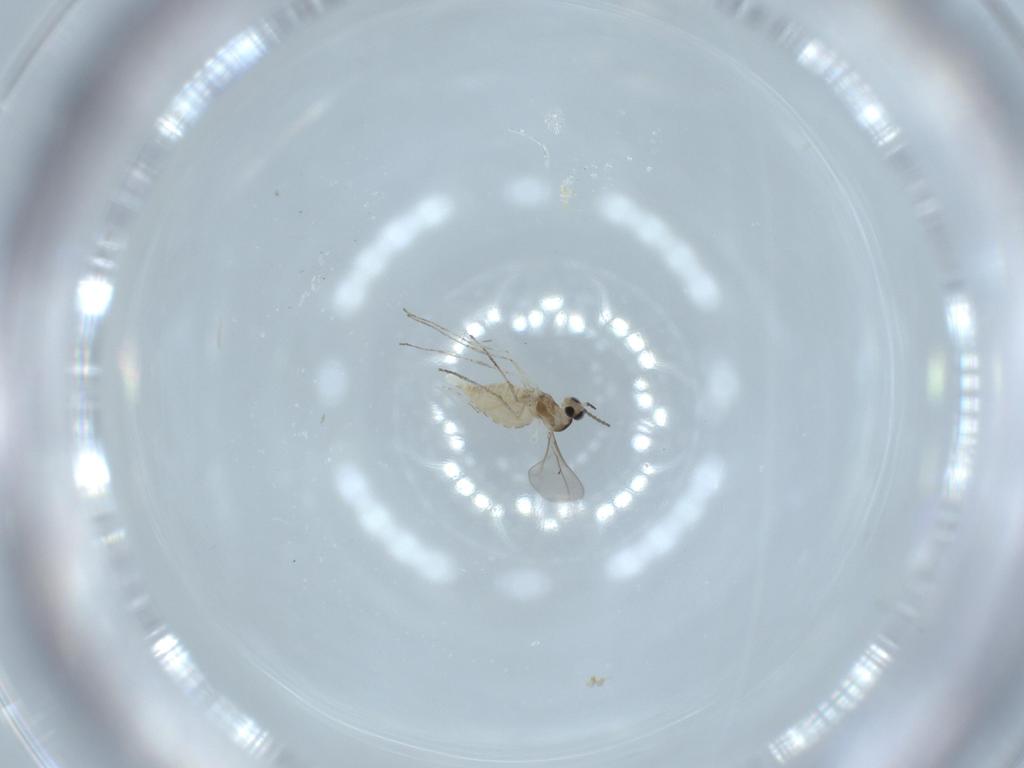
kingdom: Animalia
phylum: Arthropoda
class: Insecta
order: Diptera
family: Cecidomyiidae
